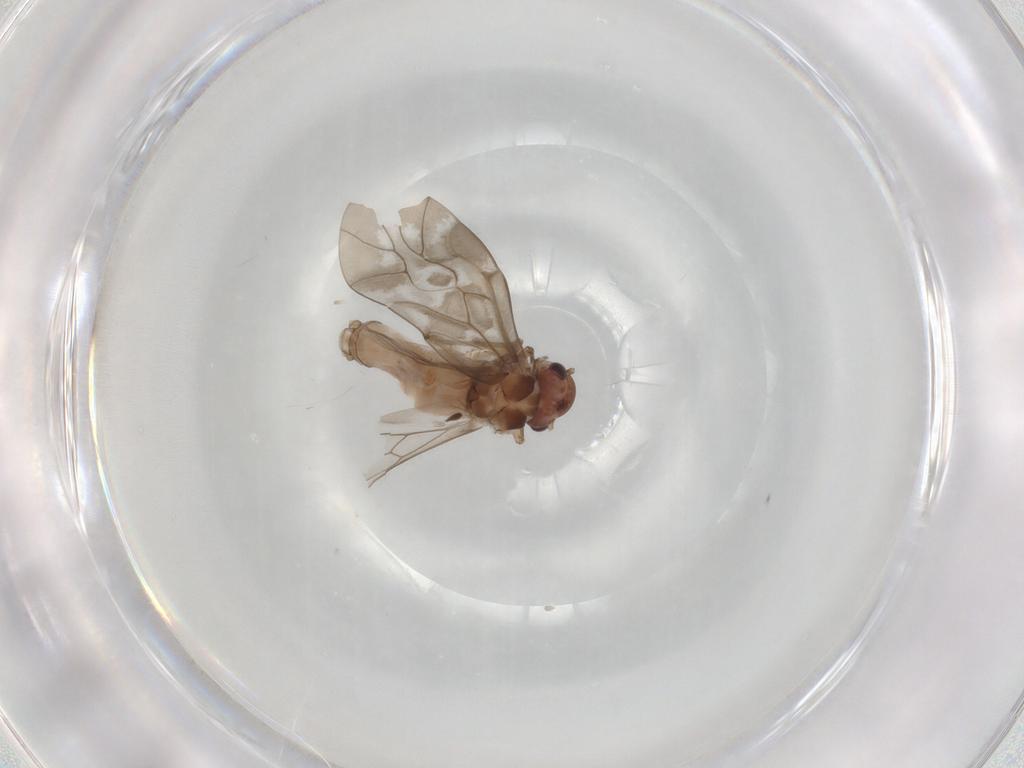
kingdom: Animalia
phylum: Arthropoda
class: Insecta
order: Psocodea
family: Peripsocidae
